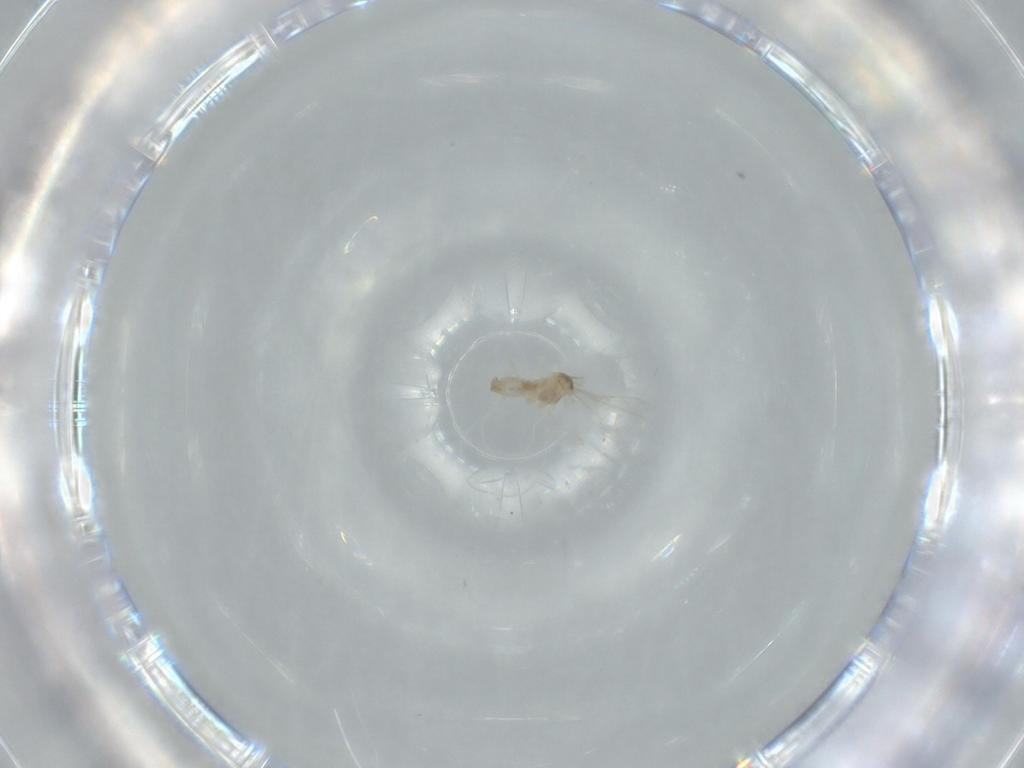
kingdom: Animalia
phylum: Arthropoda
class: Insecta
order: Diptera
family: Cecidomyiidae
